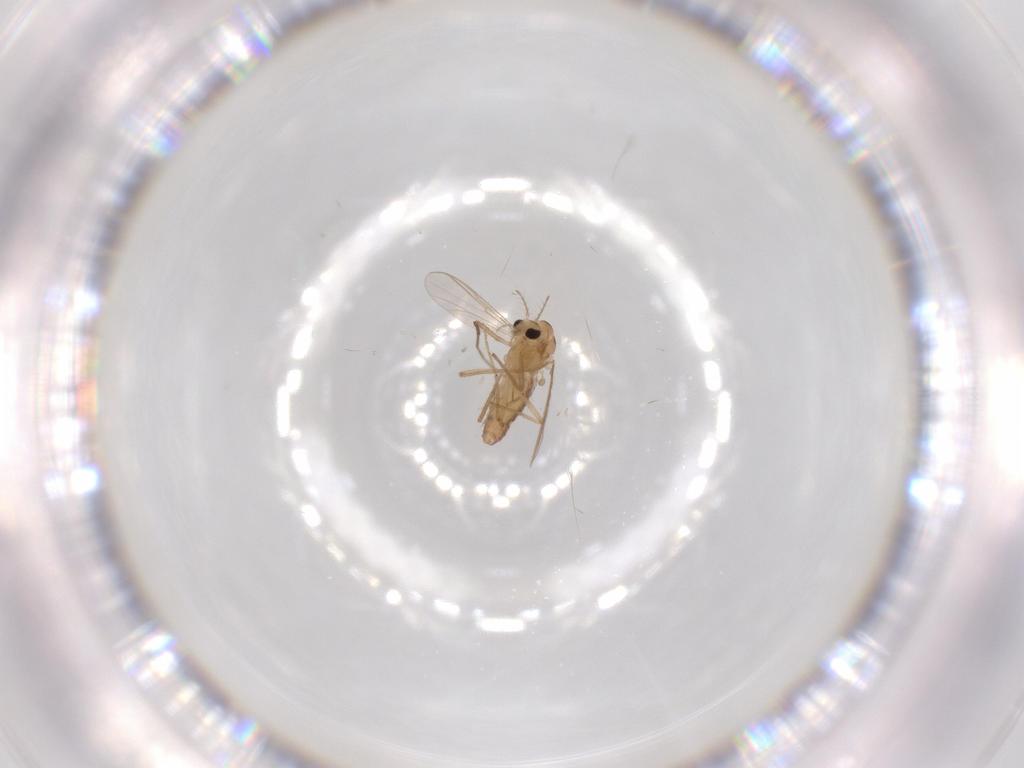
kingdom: Animalia
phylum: Arthropoda
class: Insecta
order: Diptera
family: Chironomidae
